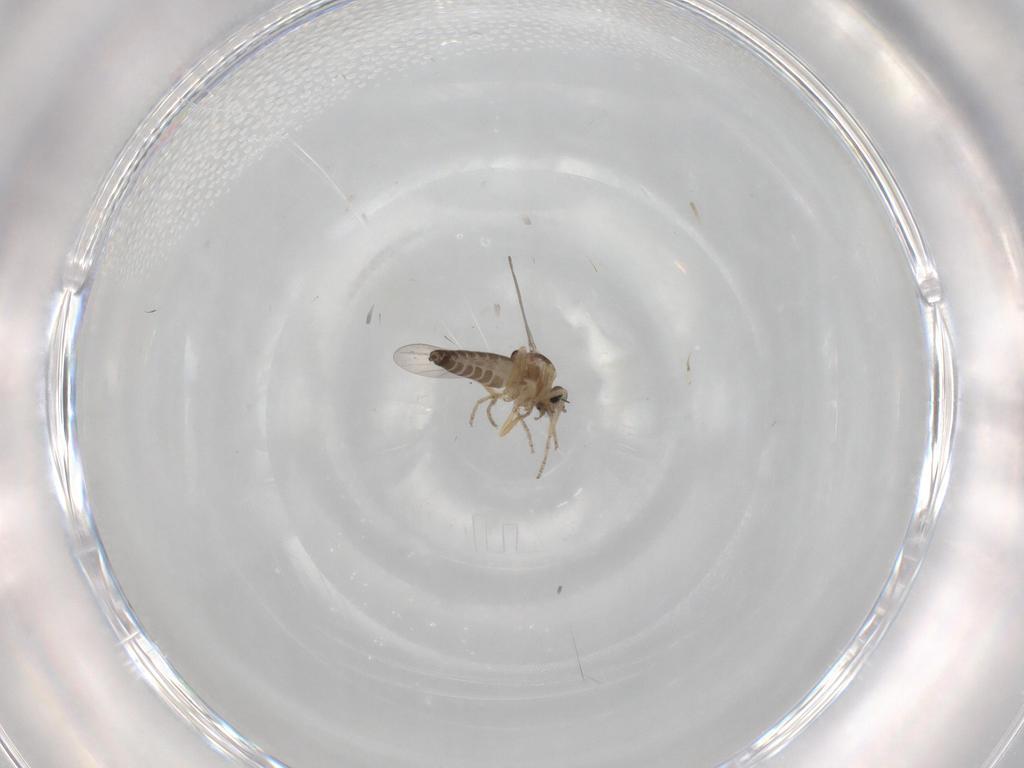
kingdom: Animalia
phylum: Arthropoda
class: Insecta
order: Diptera
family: Ceratopogonidae
